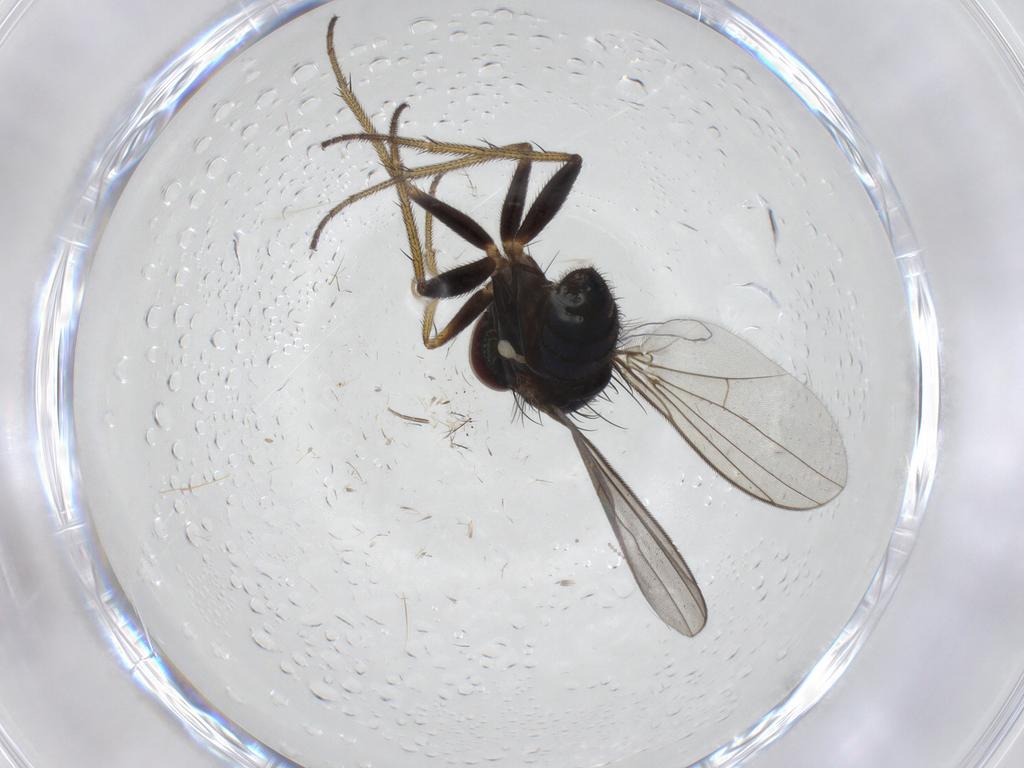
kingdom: Animalia
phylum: Arthropoda
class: Insecta
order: Diptera
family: Dolichopodidae
